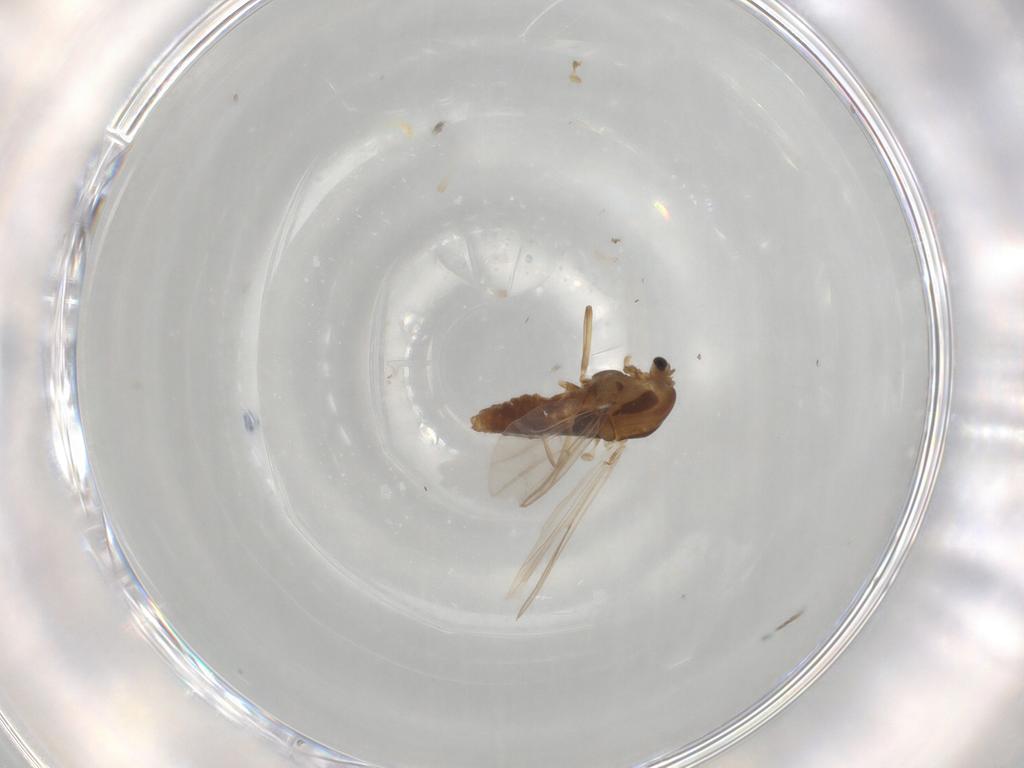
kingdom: Animalia
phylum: Arthropoda
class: Insecta
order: Diptera
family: Chironomidae
